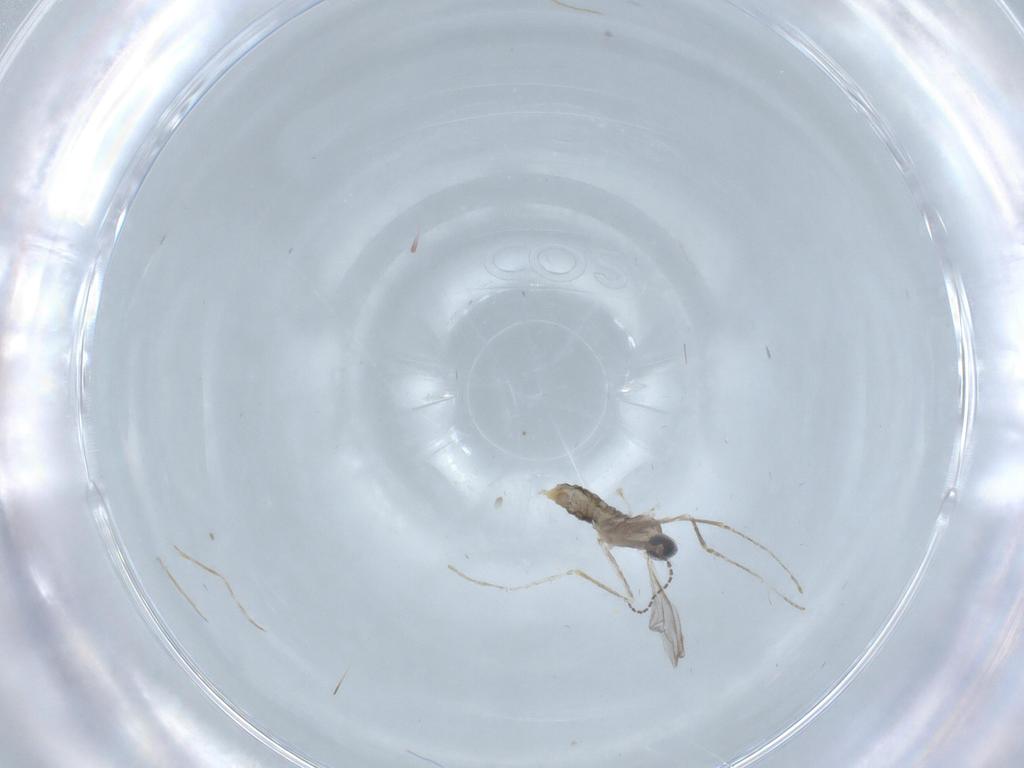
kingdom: Animalia
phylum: Arthropoda
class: Insecta
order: Diptera
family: Cecidomyiidae
